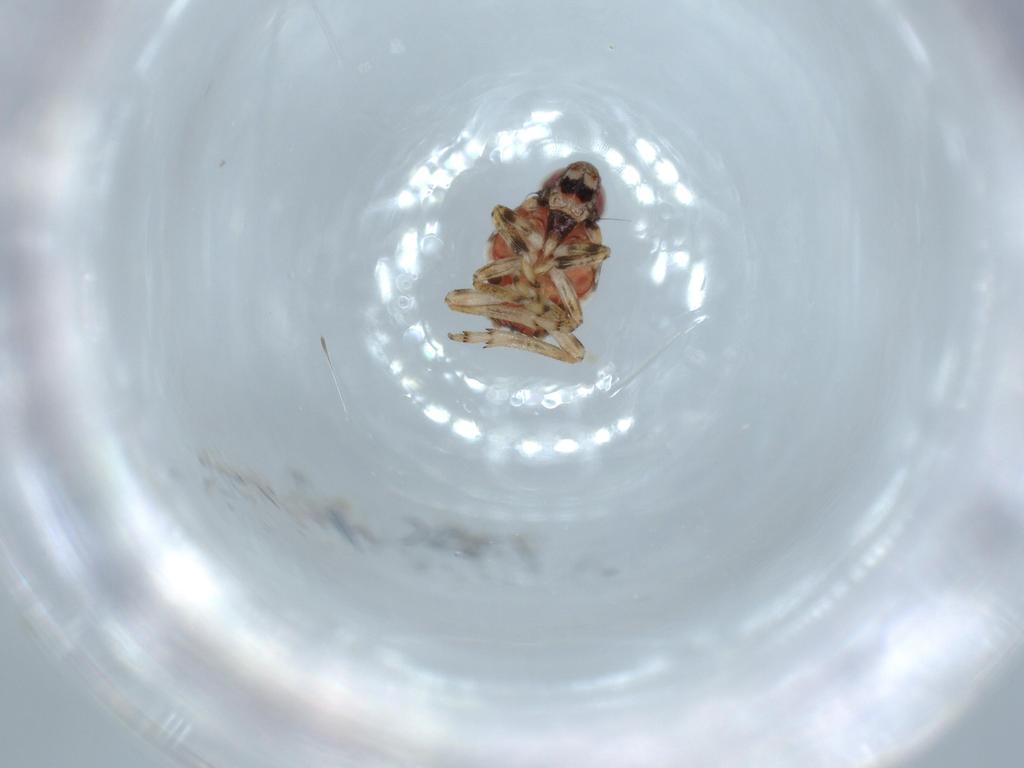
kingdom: Animalia
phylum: Arthropoda
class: Insecta
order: Hemiptera
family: Issidae
